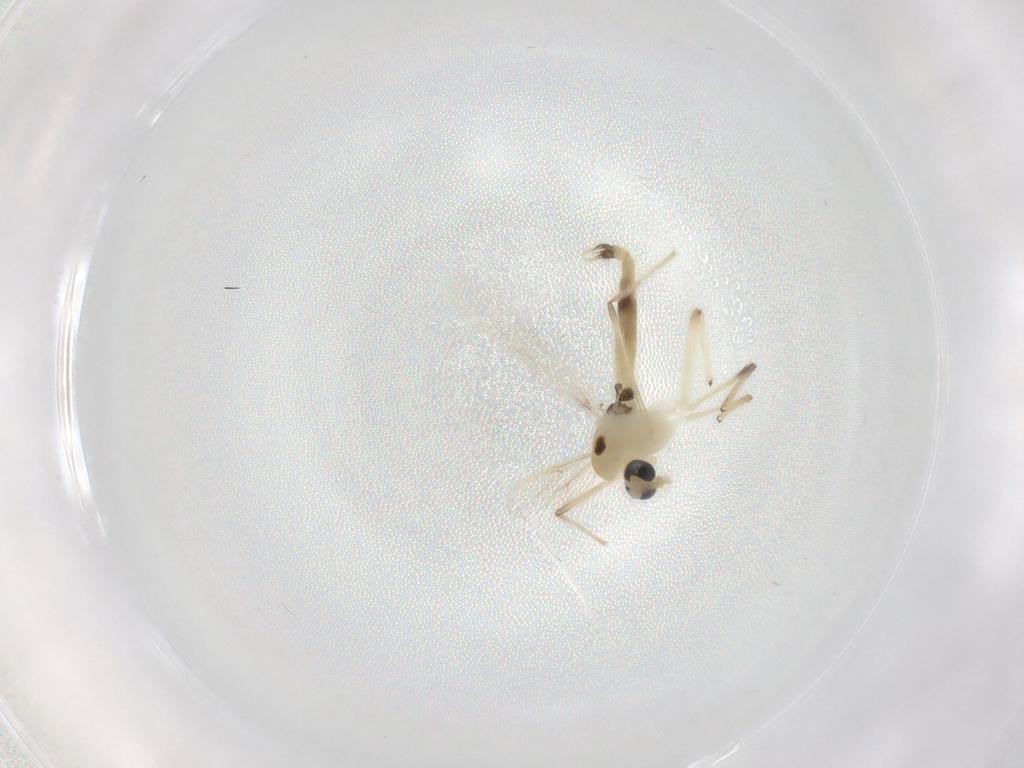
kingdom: Animalia
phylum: Arthropoda
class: Insecta
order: Diptera
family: Chironomidae
